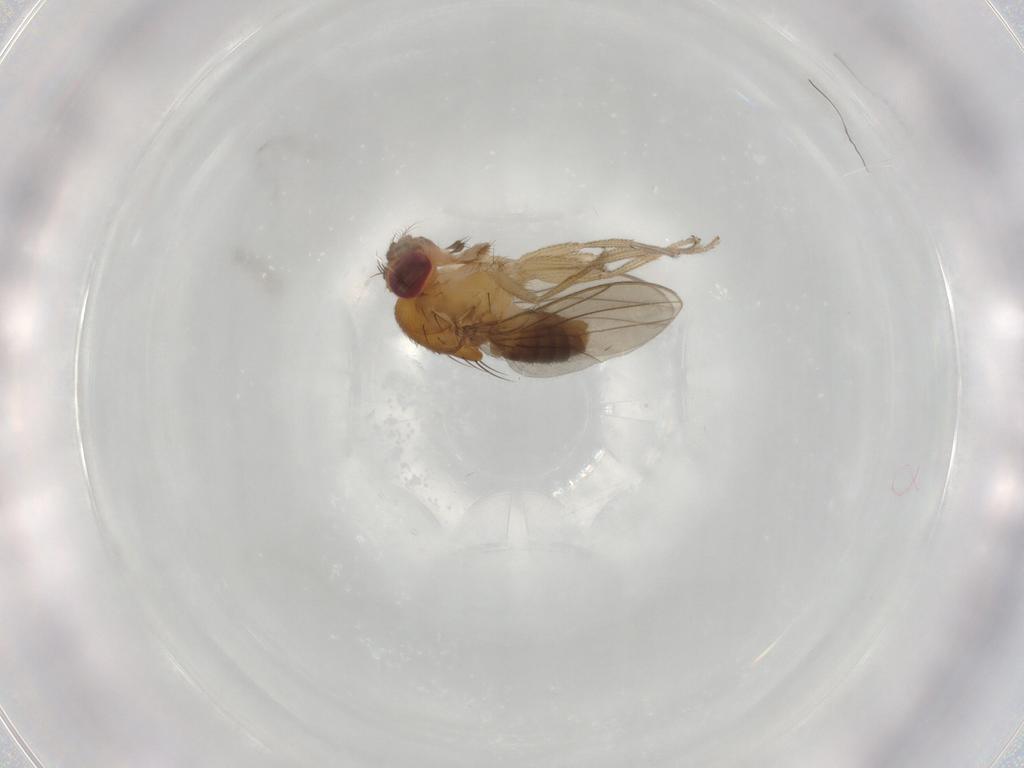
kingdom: Animalia
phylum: Arthropoda
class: Insecta
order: Diptera
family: Drosophilidae
